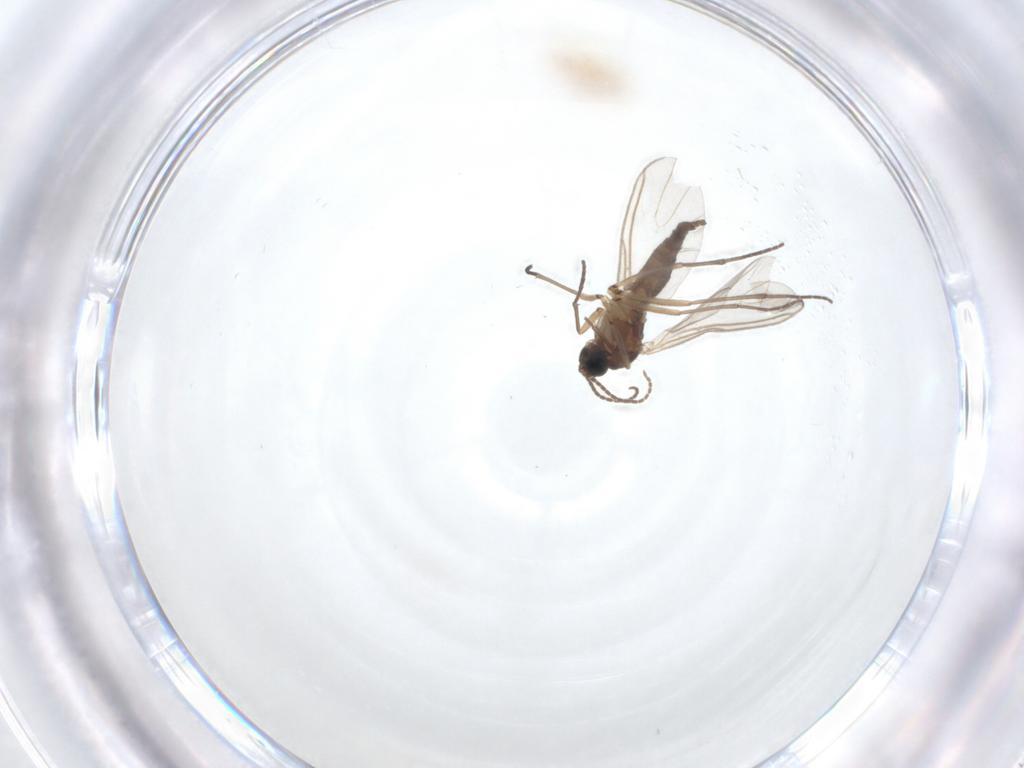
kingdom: Animalia
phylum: Arthropoda
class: Insecta
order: Diptera
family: Sciaridae
